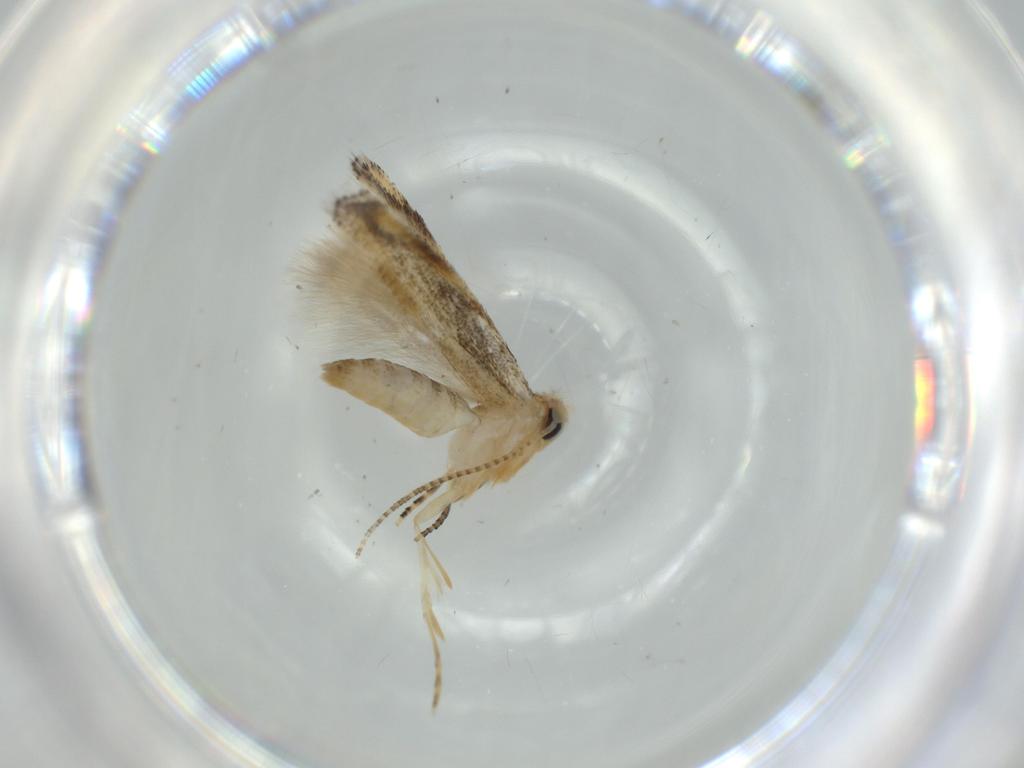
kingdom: Animalia
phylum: Arthropoda
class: Insecta
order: Lepidoptera
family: Bucculatricidae
